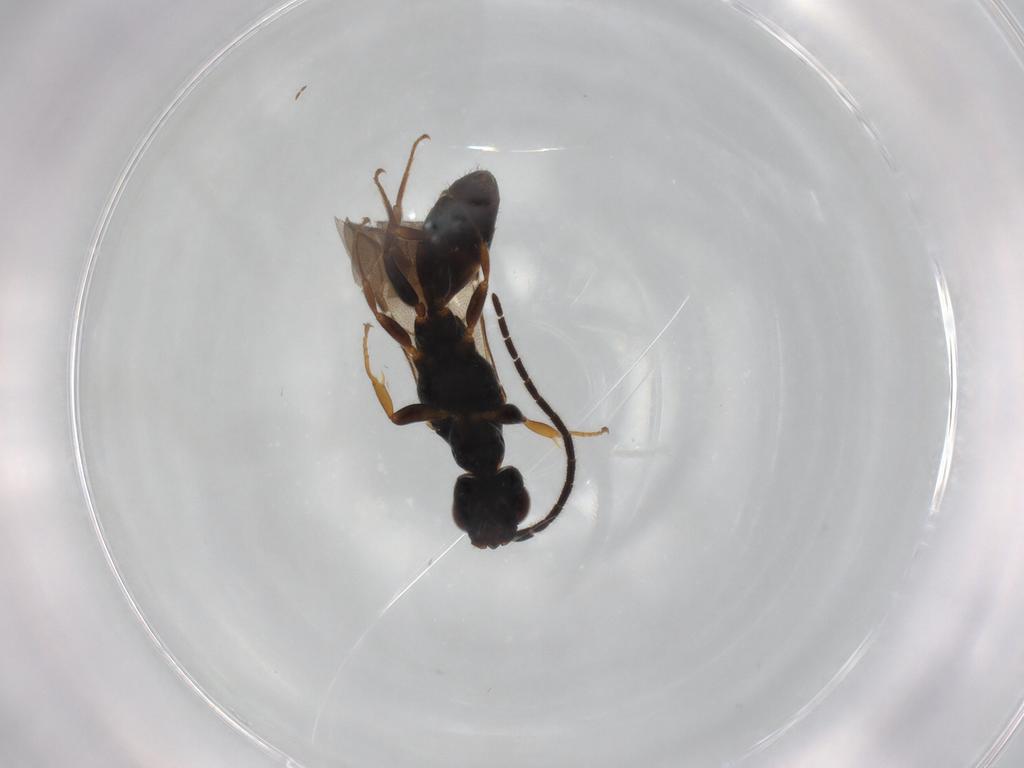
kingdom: Animalia
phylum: Arthropoda
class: Insecta
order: Hymenoptera
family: Bethylidae
